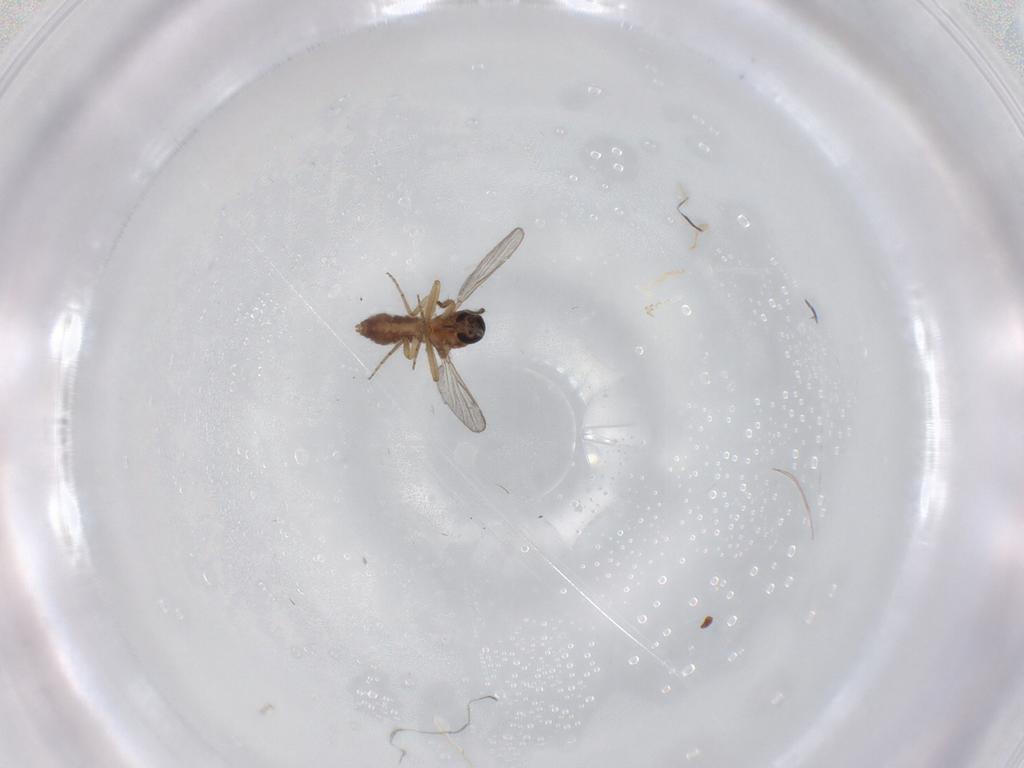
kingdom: Animalia
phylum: Arthropoda
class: Insecta
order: Diptera
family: Ceratopogonidae
